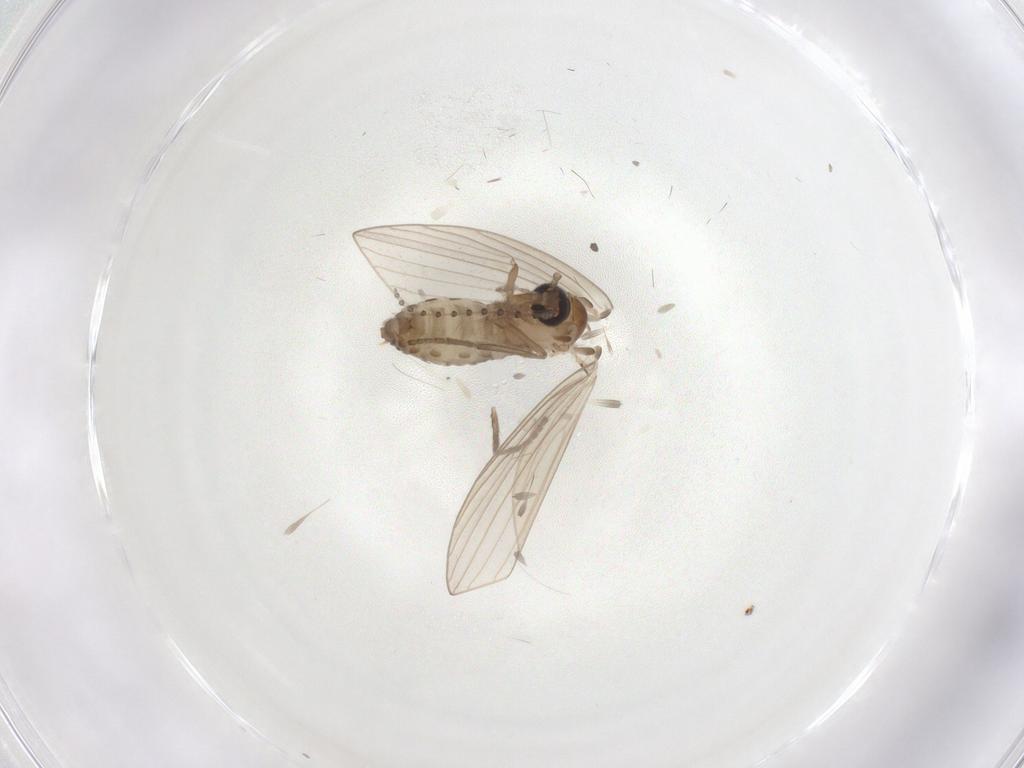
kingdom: Animalia
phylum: Arthropoda
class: Insecta
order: Diptera
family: Psychodidae
